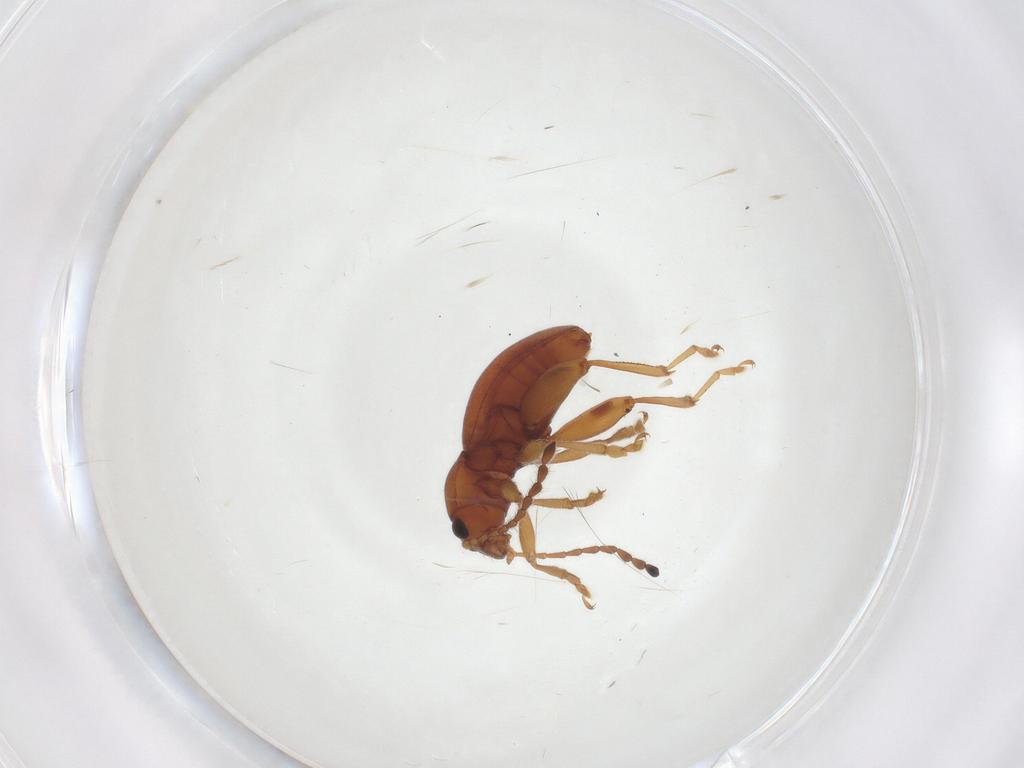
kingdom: Animalia
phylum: Arthropoda
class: Insecta
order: Coleoptera
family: Chrysomelidae
